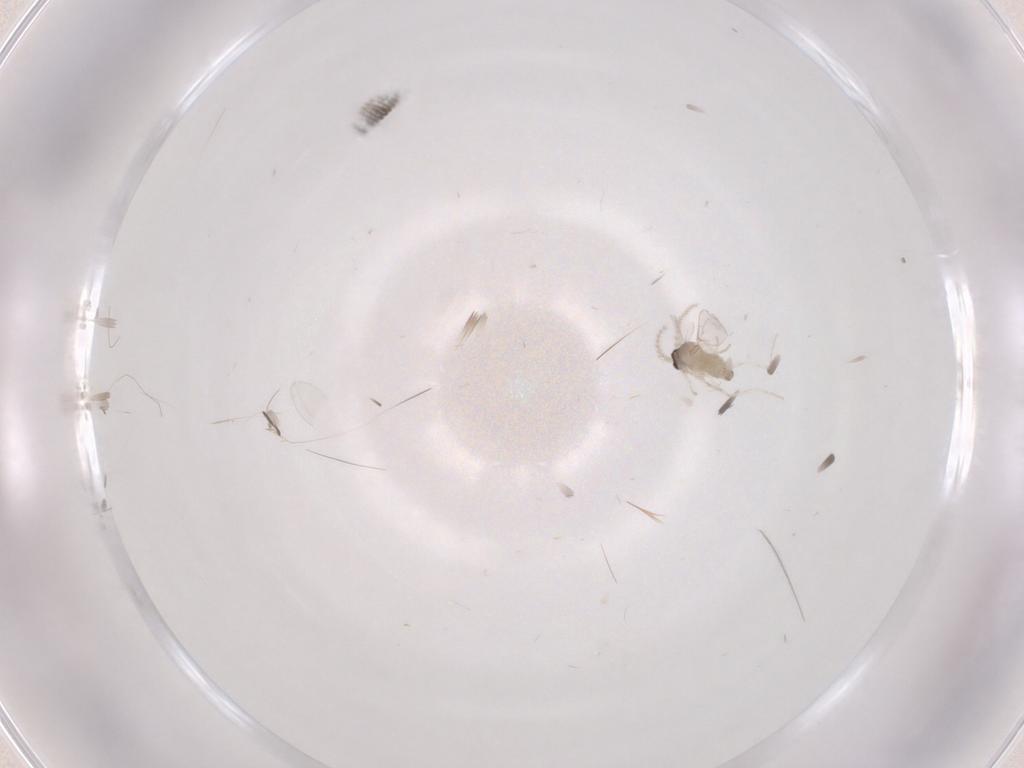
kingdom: Animalia
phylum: Arthropoda
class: Insecta
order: Diptera
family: Cecidomyiidae
